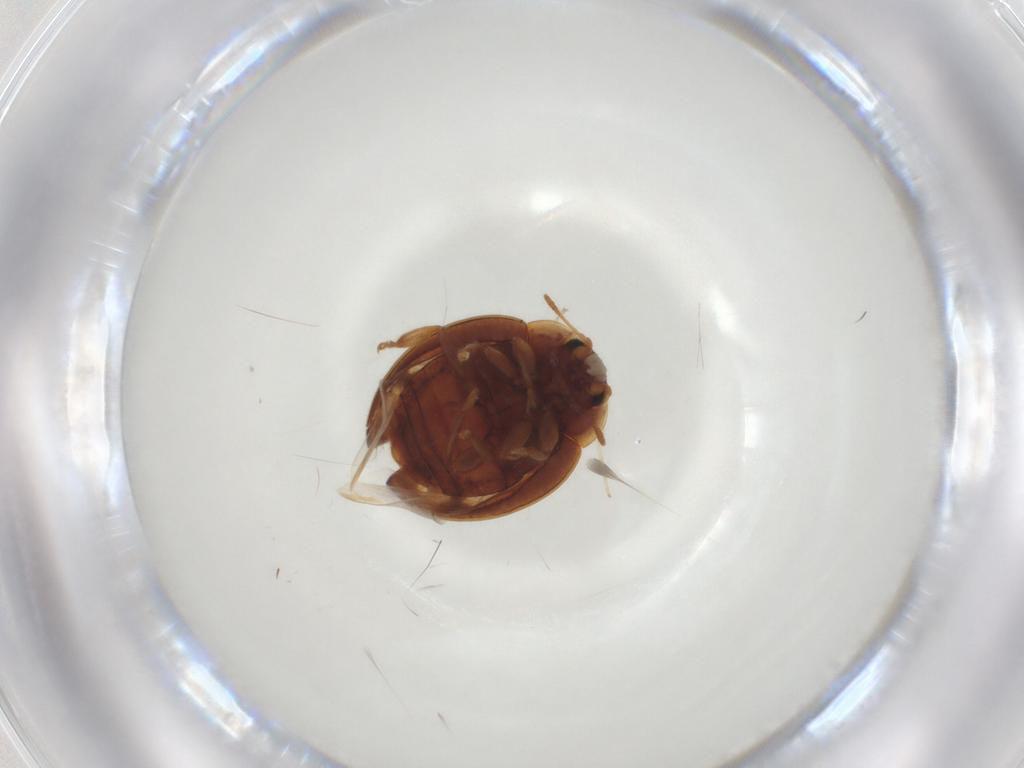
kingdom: Animalia
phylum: Arthropoda
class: Insecta
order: Coleoptera
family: Coccinellidae
